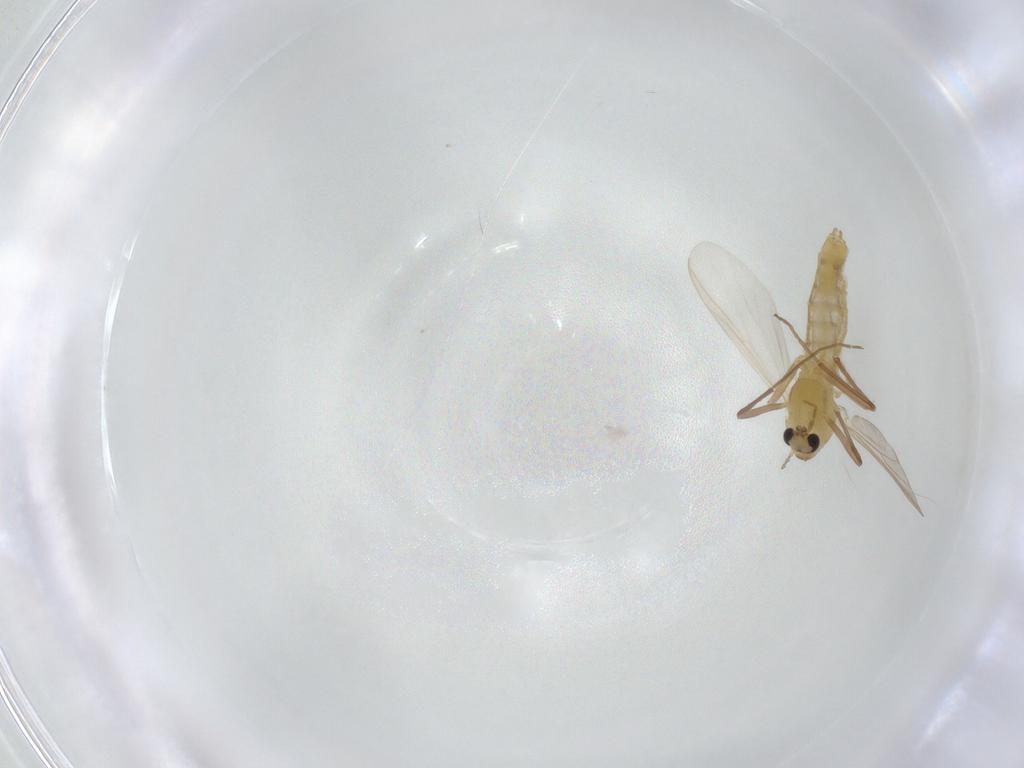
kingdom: Animalia
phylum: Arthropoda
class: Insecta
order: Diptera
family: Chironomidae
